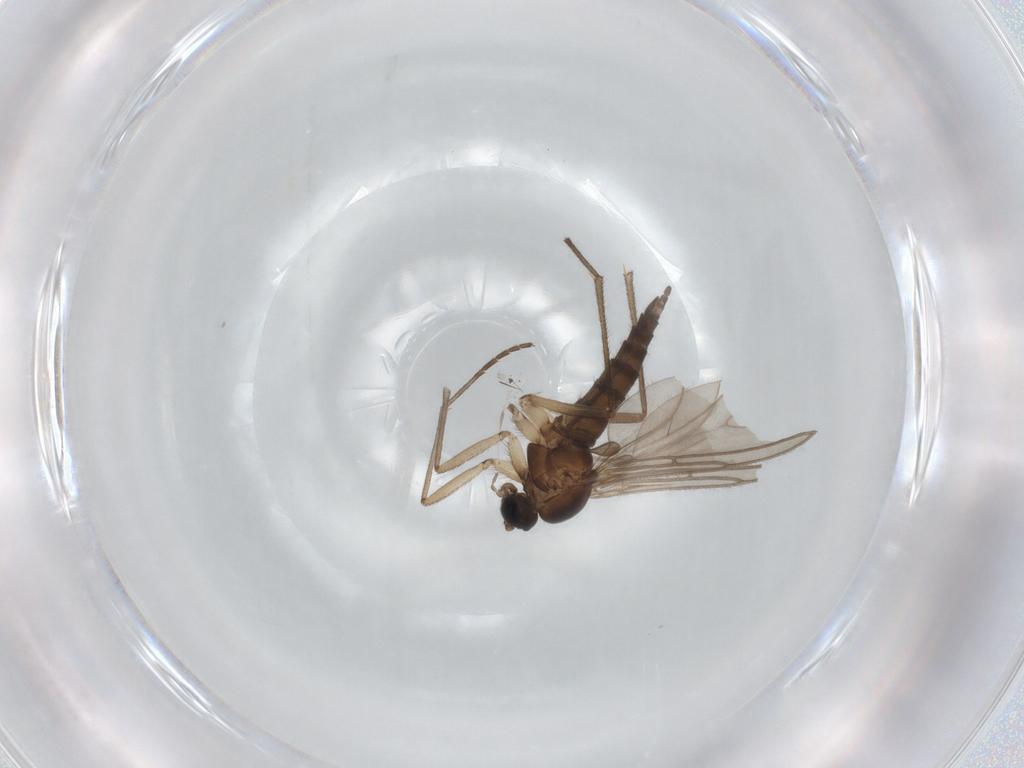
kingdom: Animalia
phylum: Arthropoda
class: Insecta
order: Diptera
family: Sciaridae
